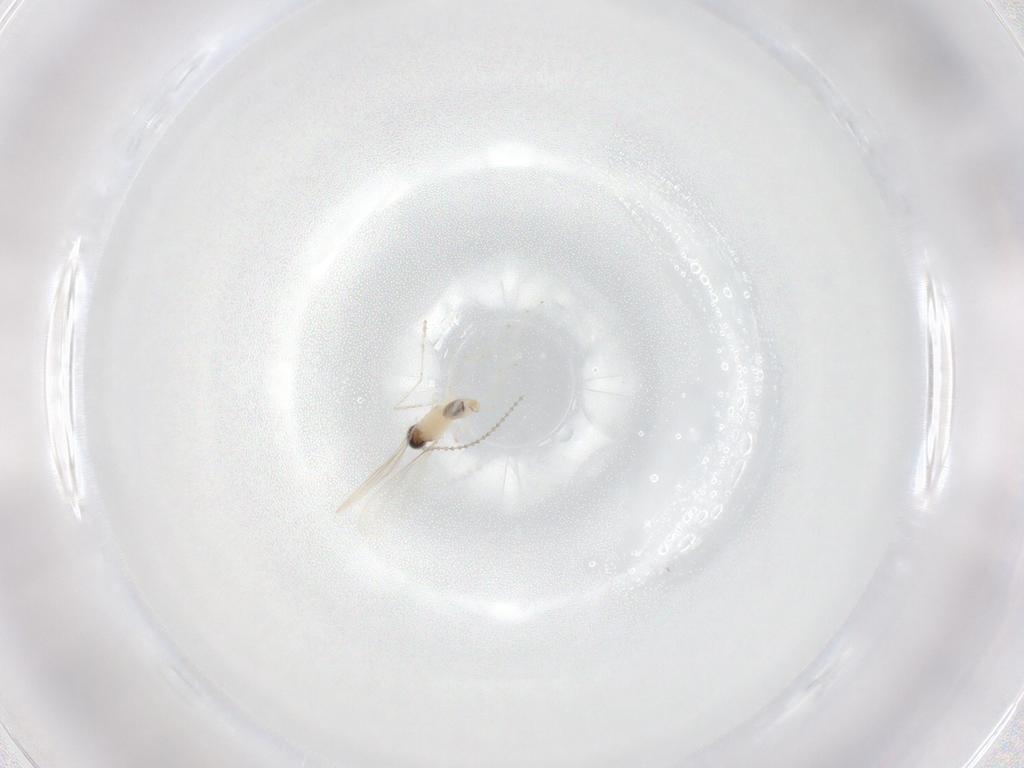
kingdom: Animalia
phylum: Arthropoda
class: Insecta
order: Diptera
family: Cecidomyiidae
